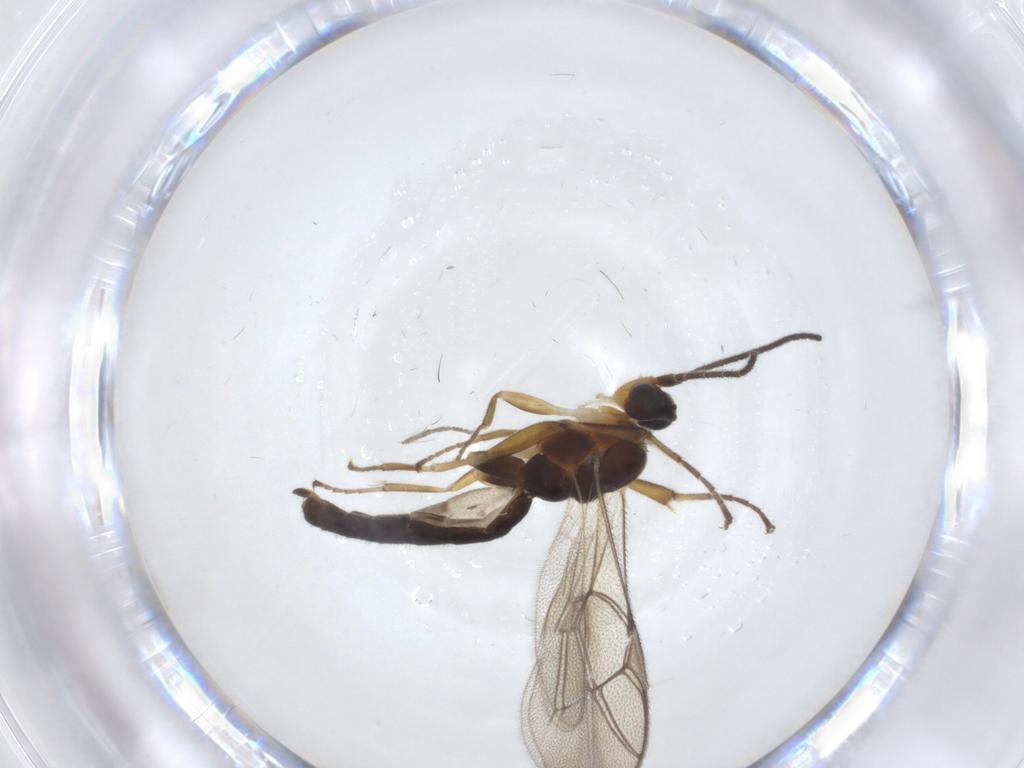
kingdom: Animalia
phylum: Arthropoda
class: Insecta
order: Hymenoptera
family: Ichneumonidae
